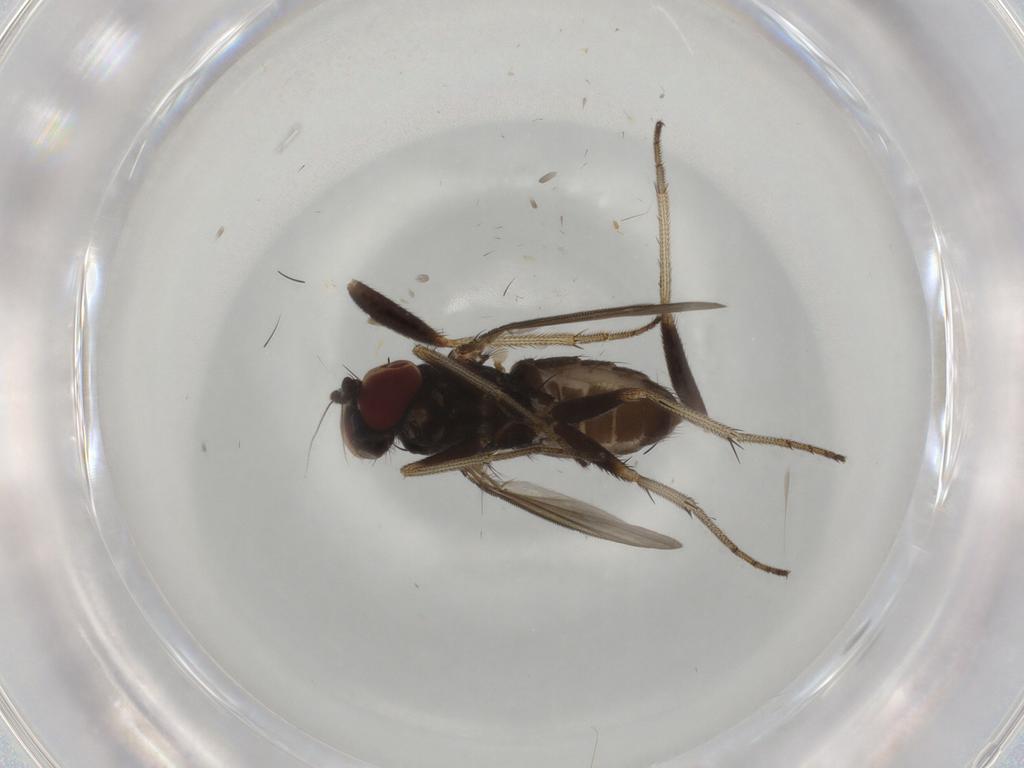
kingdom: Animalia
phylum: Arthropoda
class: Insecta
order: Diptera
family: Dolichopodidae
